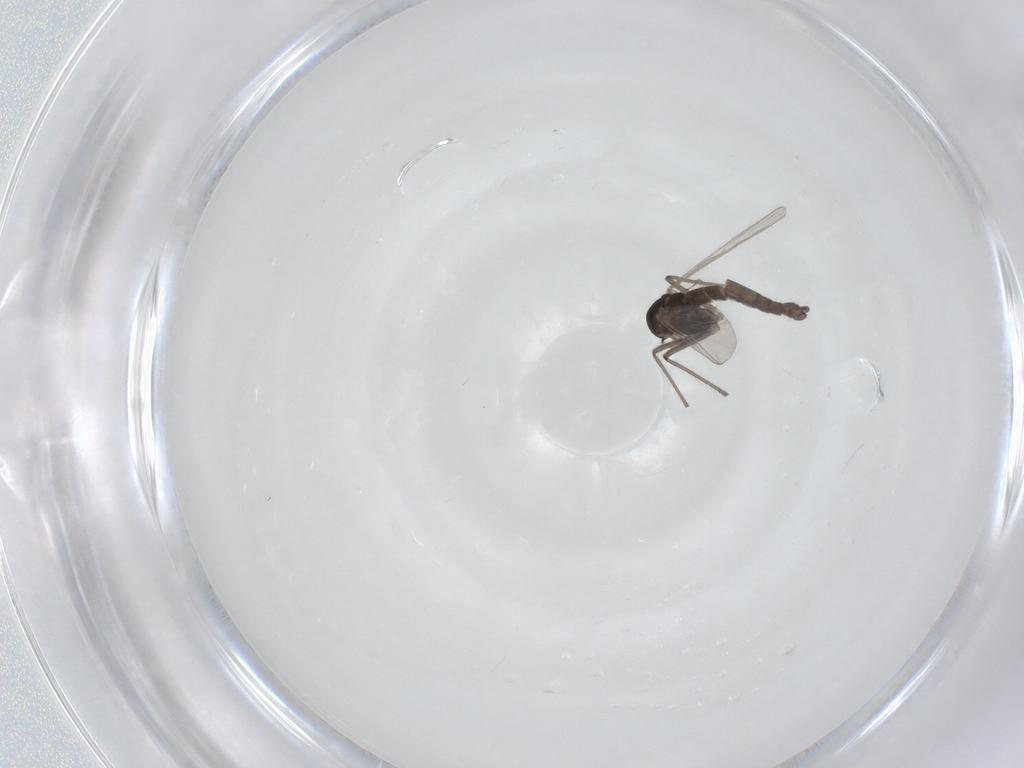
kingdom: Animalia
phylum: Arthropoda
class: Insecta
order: Diptera
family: Chironomidae
